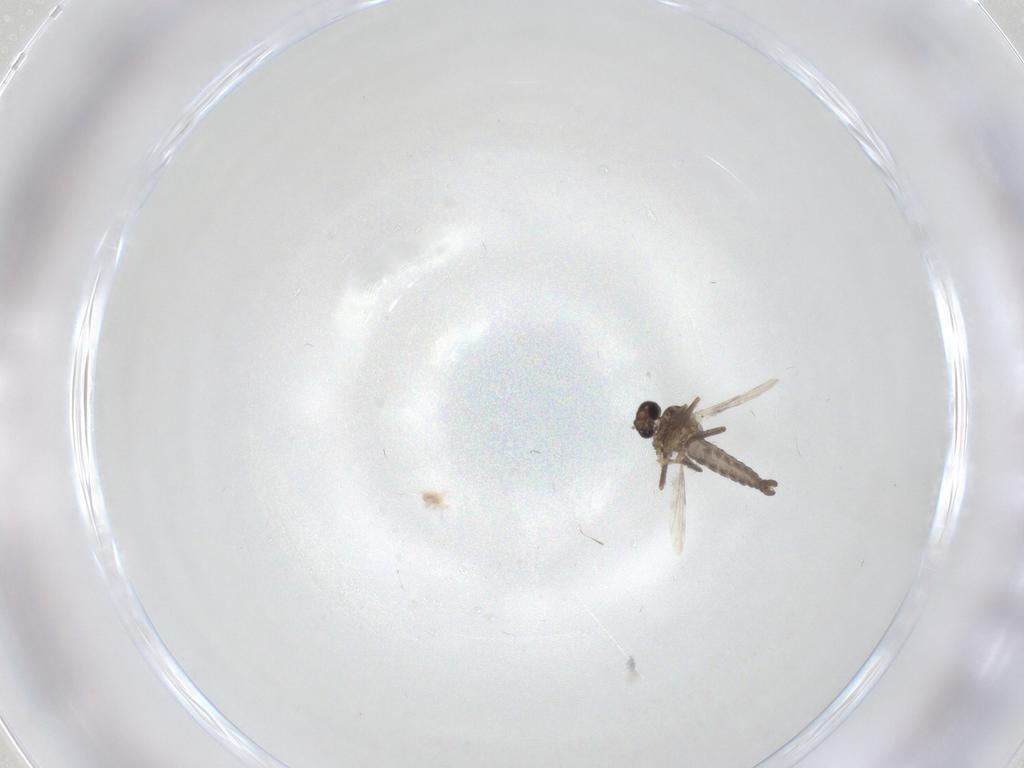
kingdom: Animalia
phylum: Arthropoda
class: Insecta
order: Diptera
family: Ceratopogonidae
